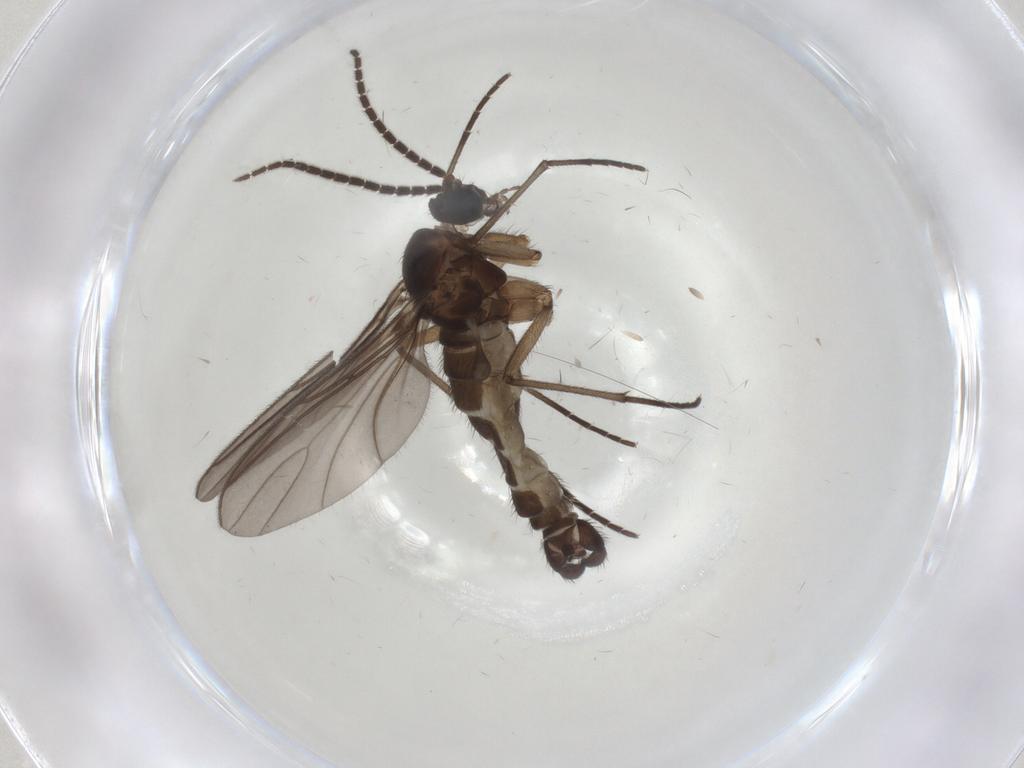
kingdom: Animalia
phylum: Arthropoda
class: Insecta
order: Diptera
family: Sciaridae
